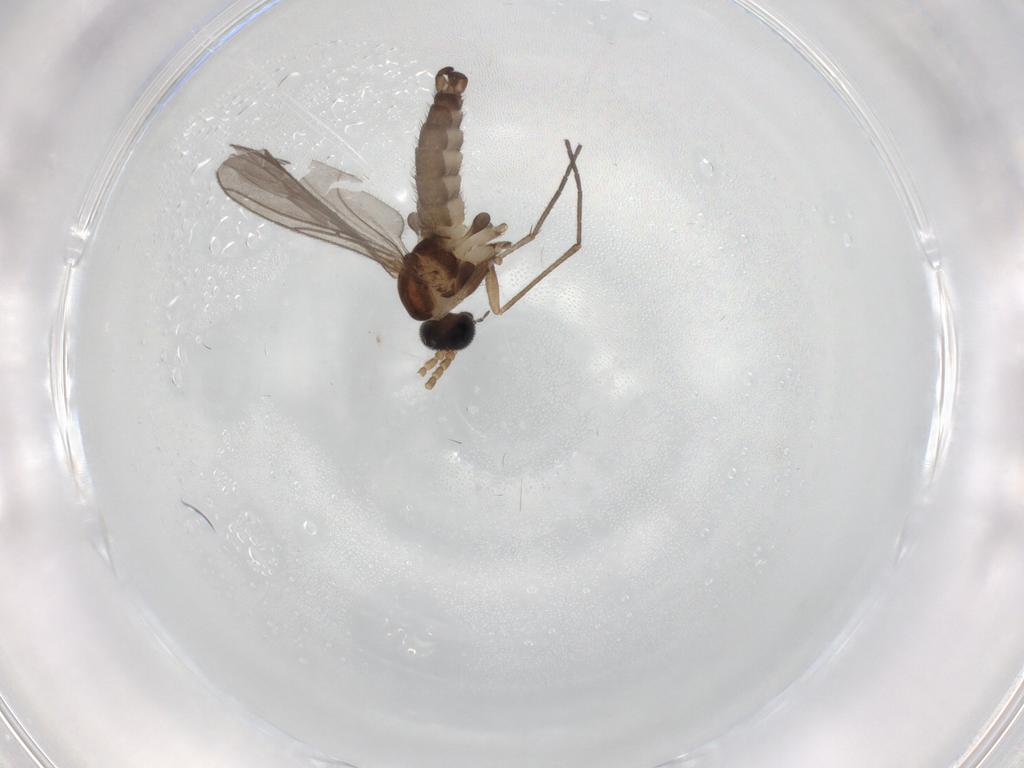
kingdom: Animalia
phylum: Arthropoda
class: Insecta
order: Diptera
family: Sciaridae
